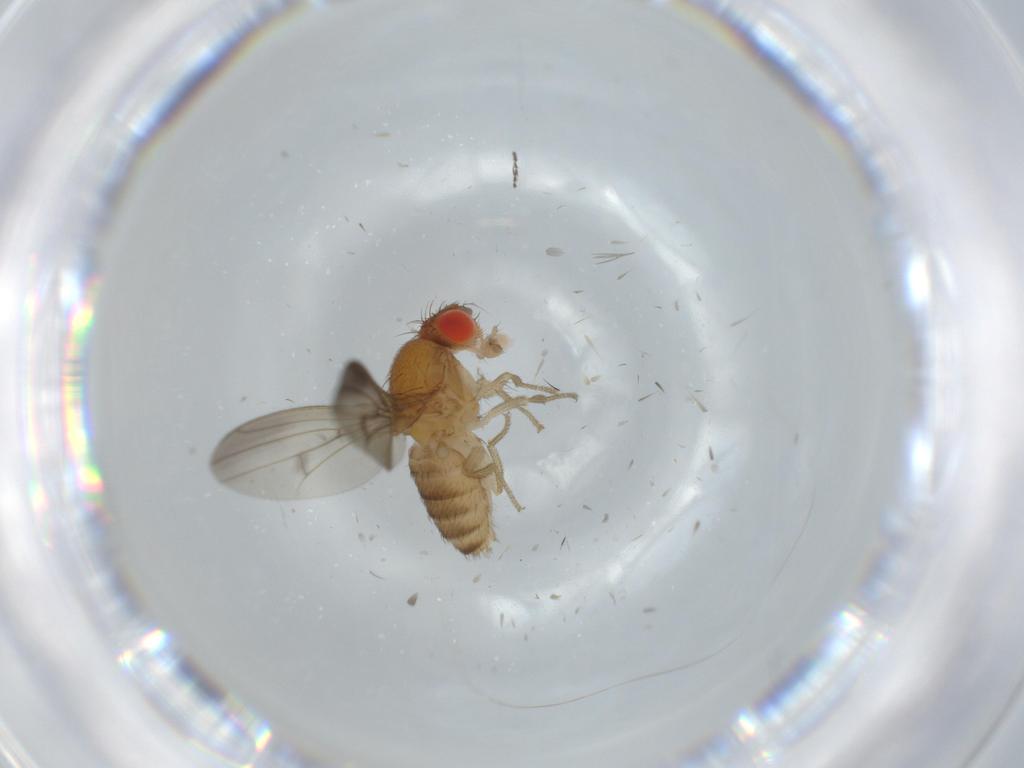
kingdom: Animalia
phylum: Arthropoda
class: Insecta
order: Diptera
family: Drosophilidae
